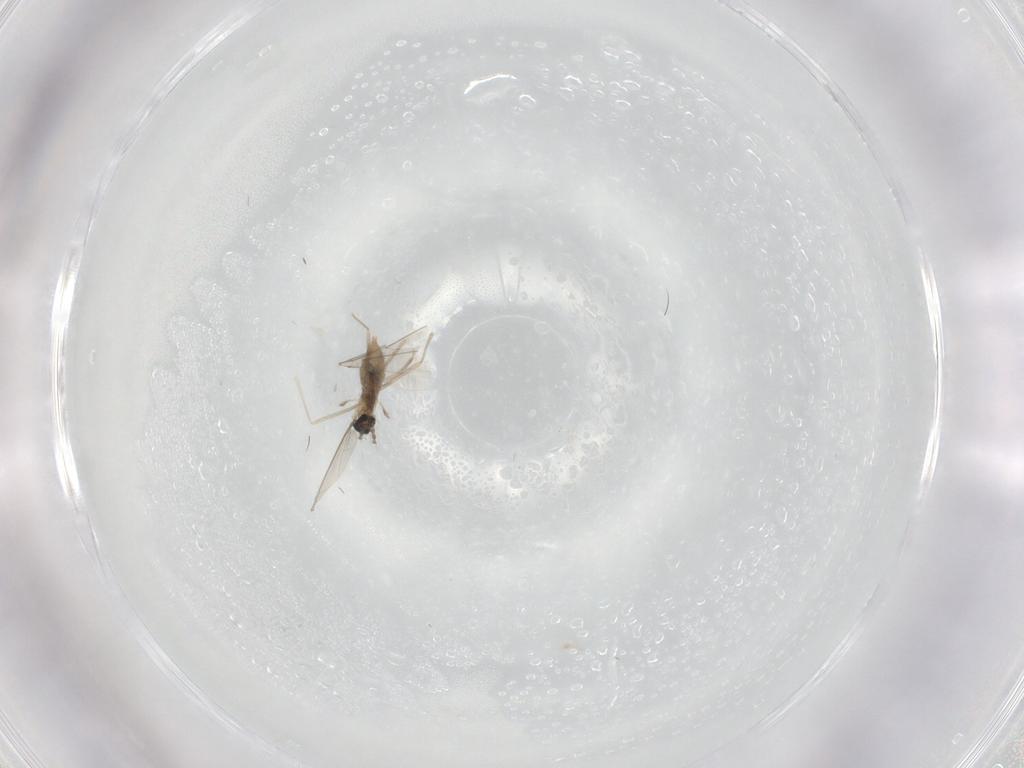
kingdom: Animalia
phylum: Arthropoda
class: Insecta
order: Diptera
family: Cecidomyiidae
